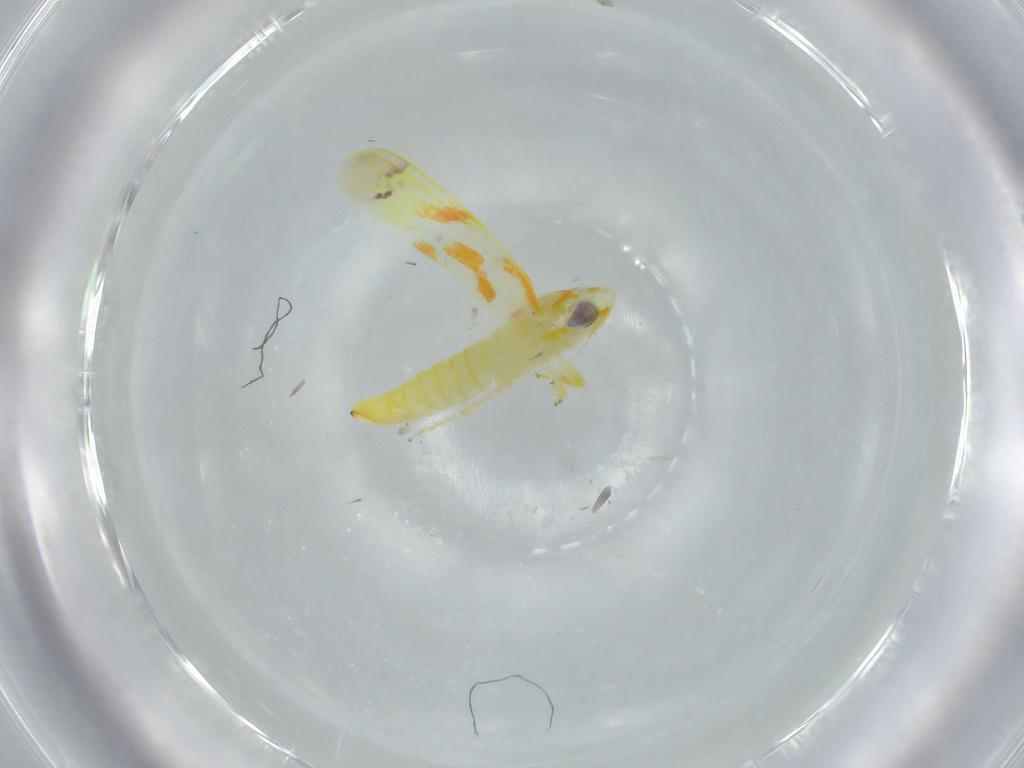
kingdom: Animalia
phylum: Arthropoda
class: Insecta
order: Hemiptera
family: Cicadellidae
